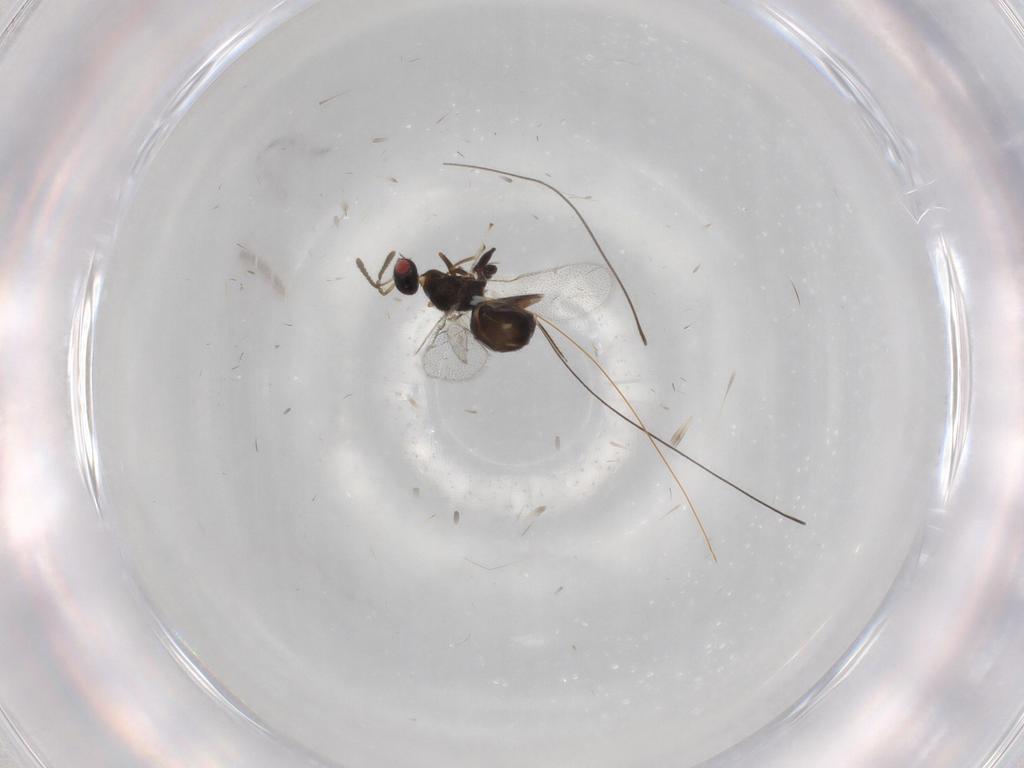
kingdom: Animalia
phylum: Arthropoda
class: Insecta
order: Hymenoptera
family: Torymidae
